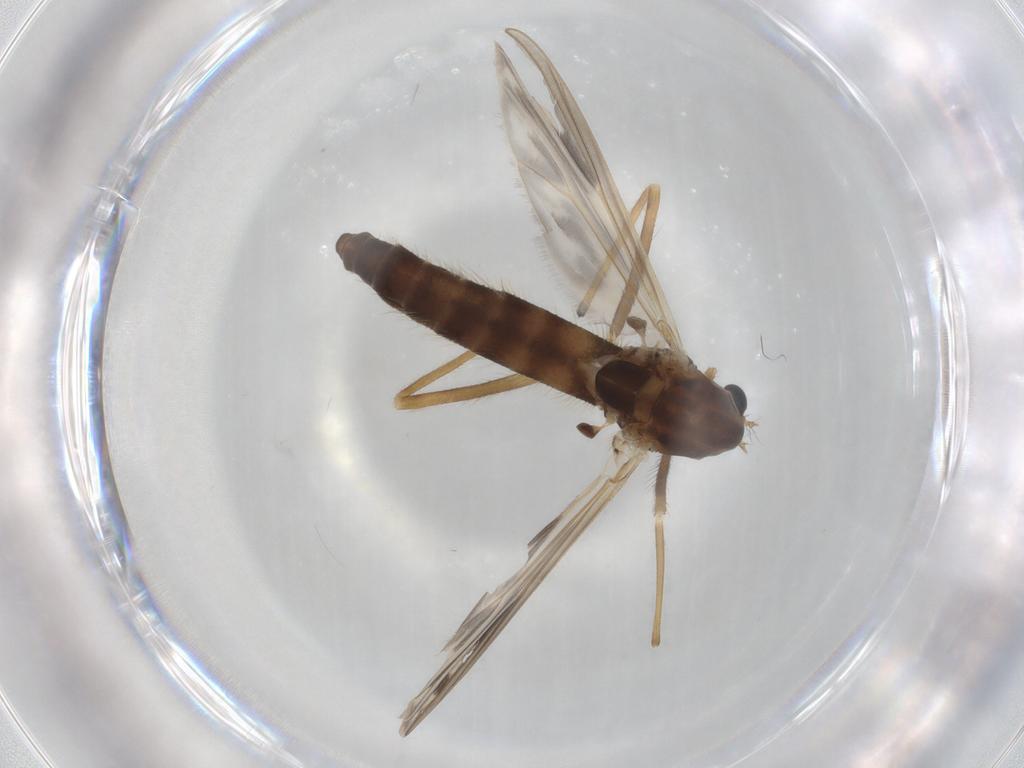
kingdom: Animalia
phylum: Arthropoda
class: Insecta
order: Diptera
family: Chironomidae
